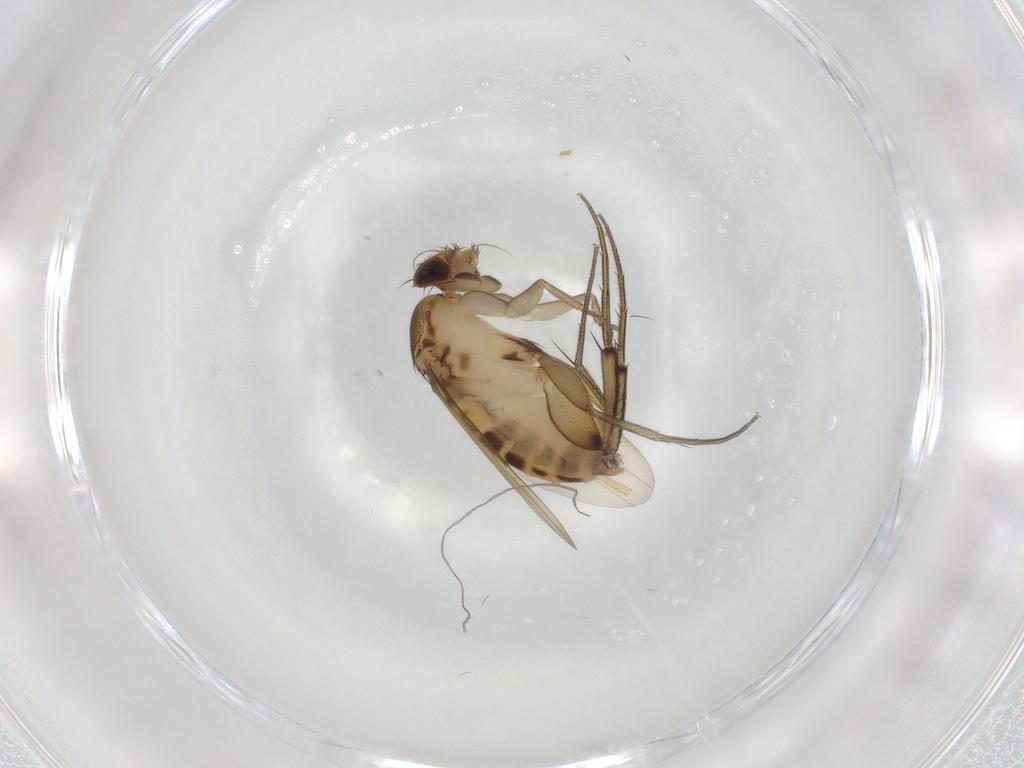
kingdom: Animalia
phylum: Arthropoda
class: Insecta
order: Diptera
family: Phoridae
